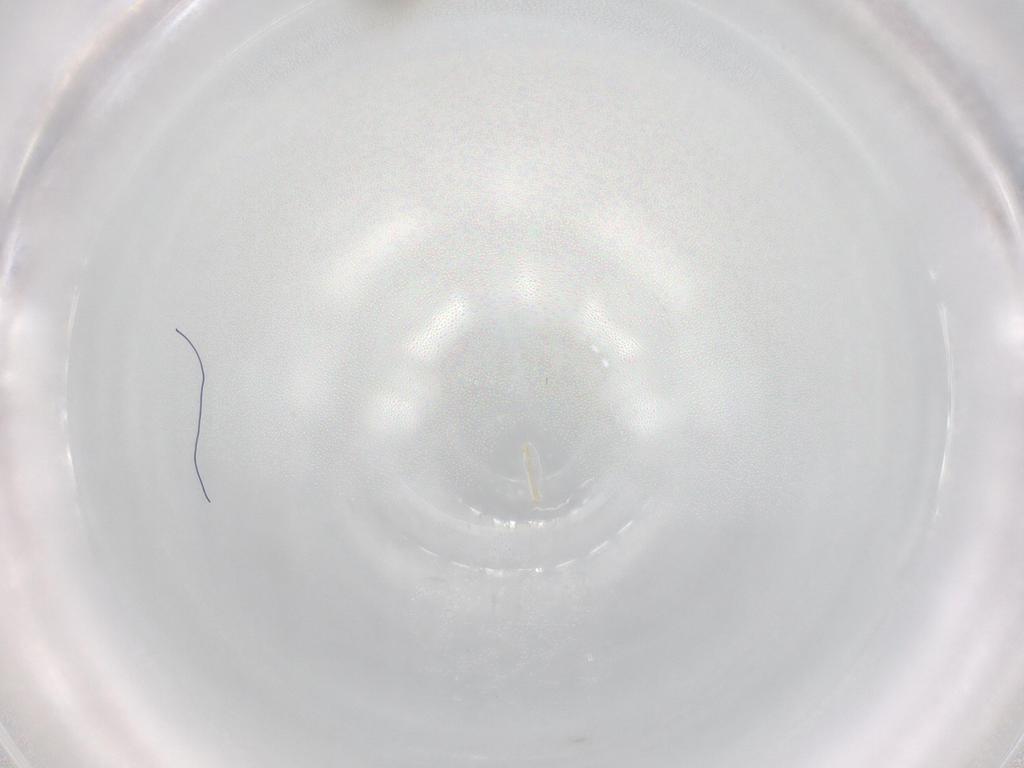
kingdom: Animalia
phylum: Arthropoda
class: Insecta
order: Diptera
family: Cecidomyiidae
